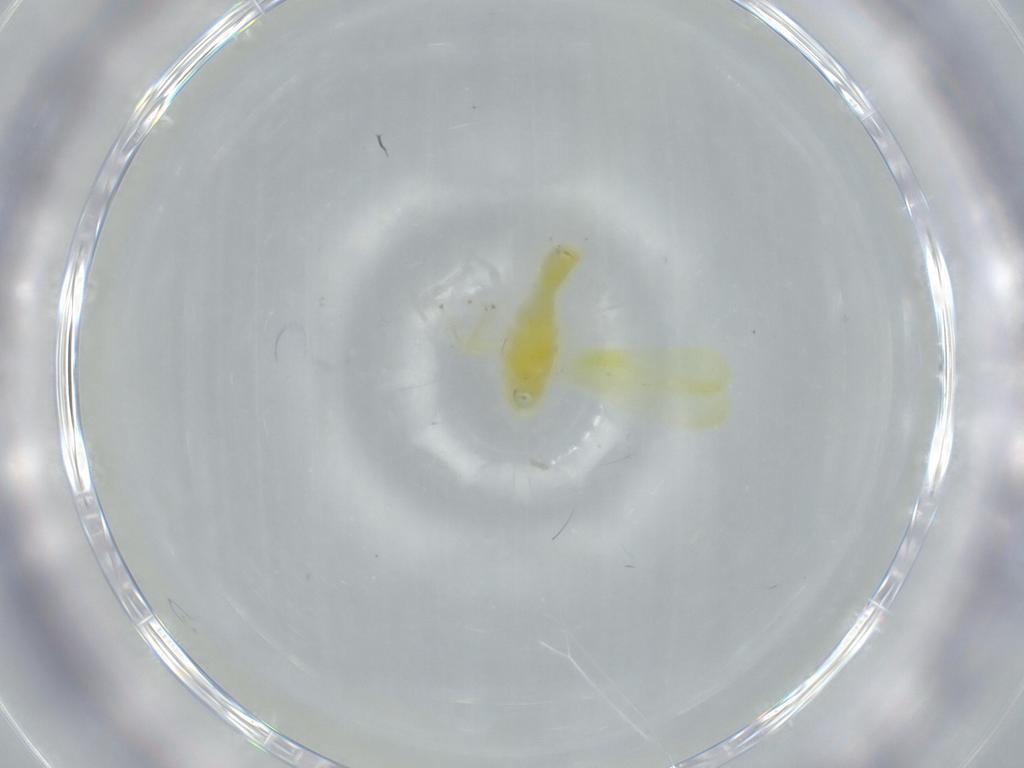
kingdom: Animalia
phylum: Arthropoda
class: Insecta
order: Hemiptera
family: Cicadellidae
